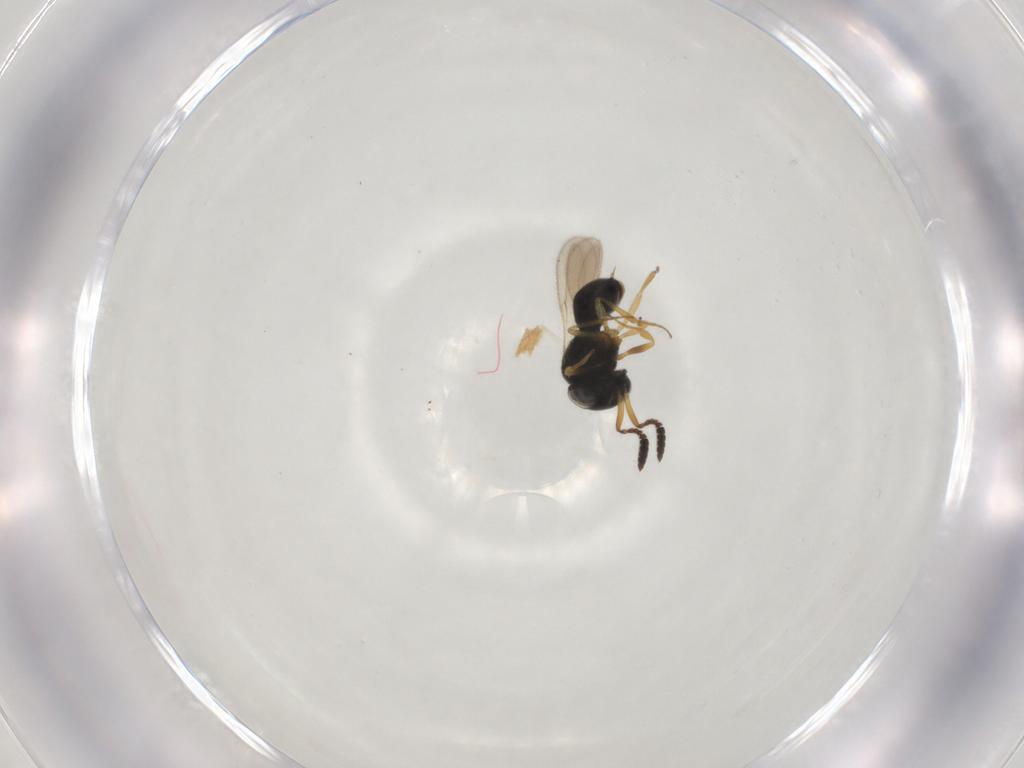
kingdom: Animalia
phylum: Arthropoda
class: Insecta
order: Hymenoptera
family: Scelionidae
